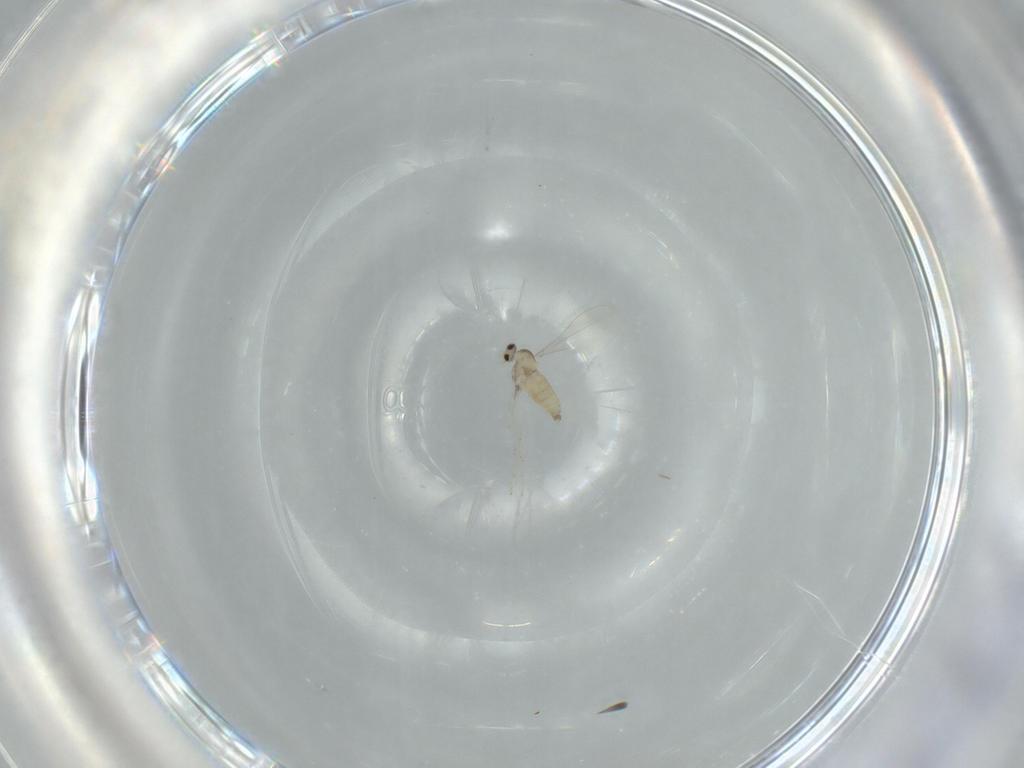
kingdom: Animalia
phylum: Arthropoda
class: Insecta
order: Diptera
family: Cecidomyiidae
